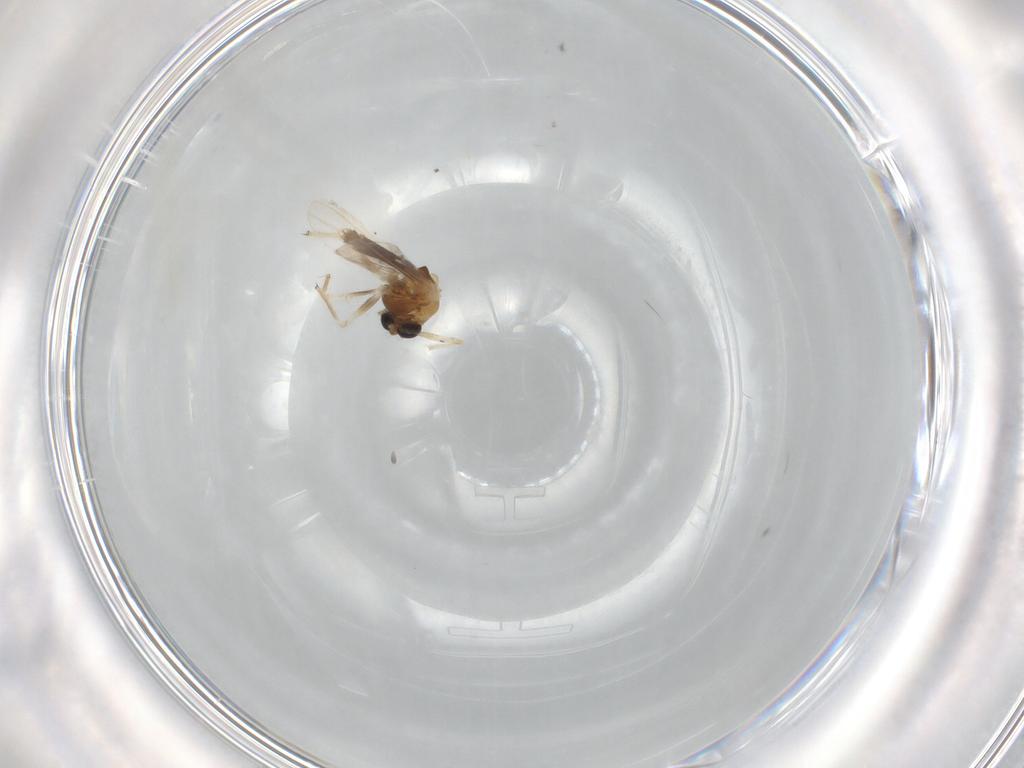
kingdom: Animalia
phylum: Arthropoda
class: Insecta
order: Diptera
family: Chironomidae
